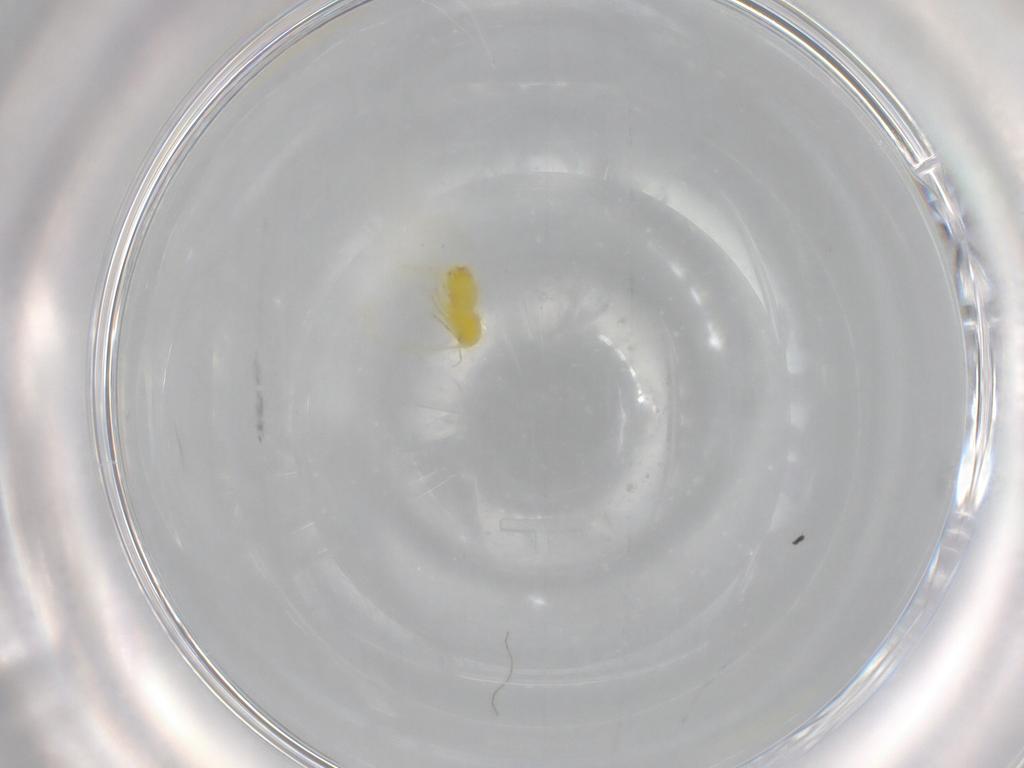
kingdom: Animalia
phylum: Arthropoda
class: Insecta
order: Hemiptera
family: Aleyrodidae
